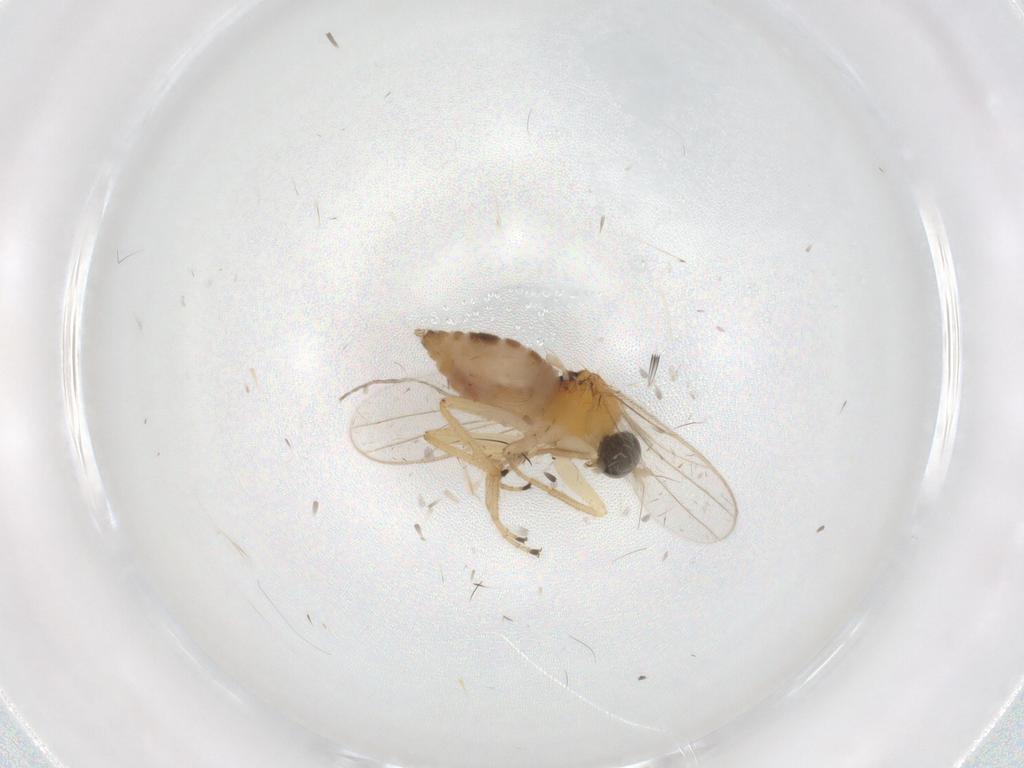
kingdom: Animalia
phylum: Arthropoda
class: Insecta
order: Diptera
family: Hybotidae
